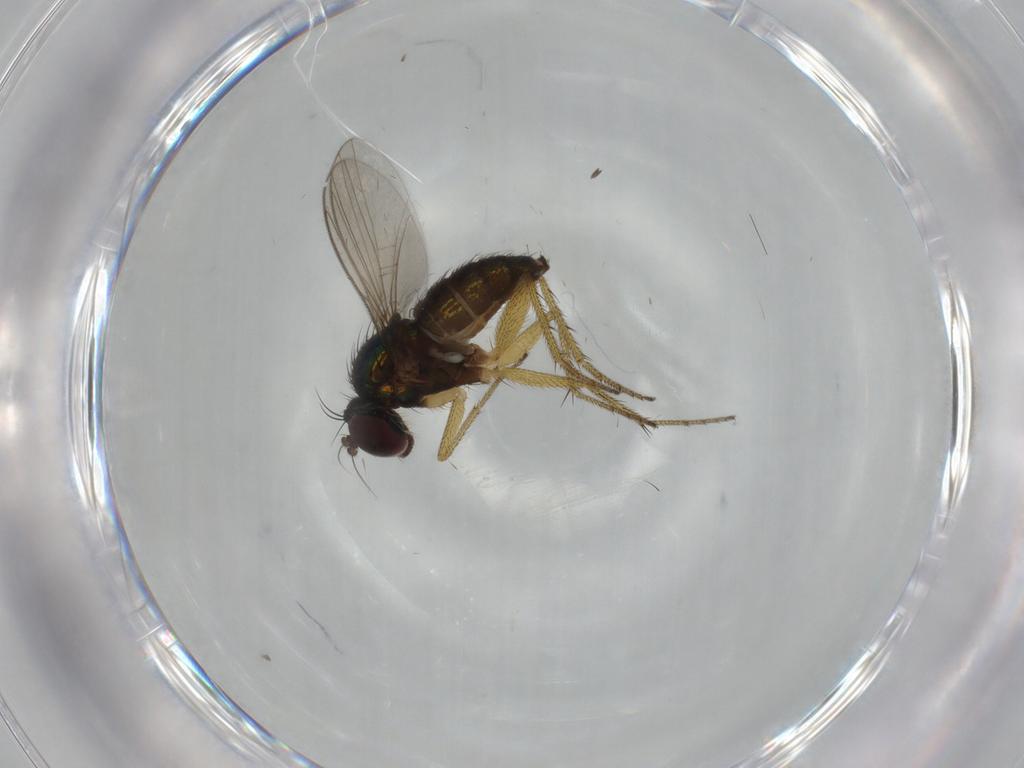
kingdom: Animalia
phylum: Arthropoda
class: Insecta
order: Diptera
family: Dolichopodidae
